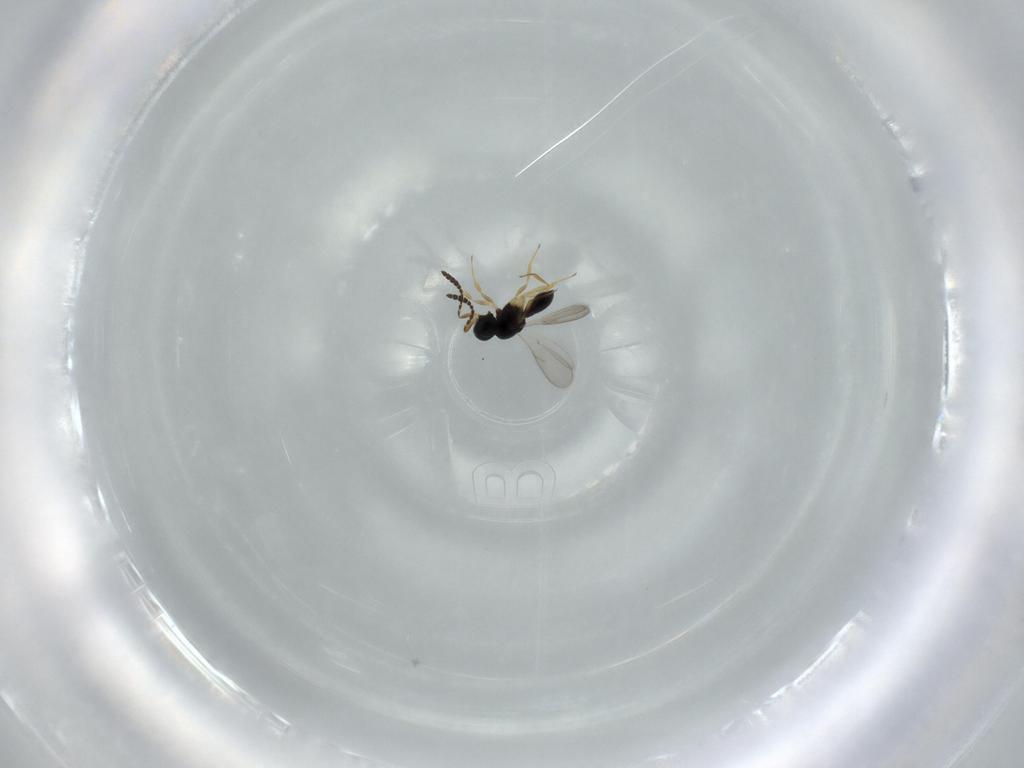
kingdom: Animalia
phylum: Arthropoda
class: Insecta
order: Hymenoptera
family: Scelionidae
